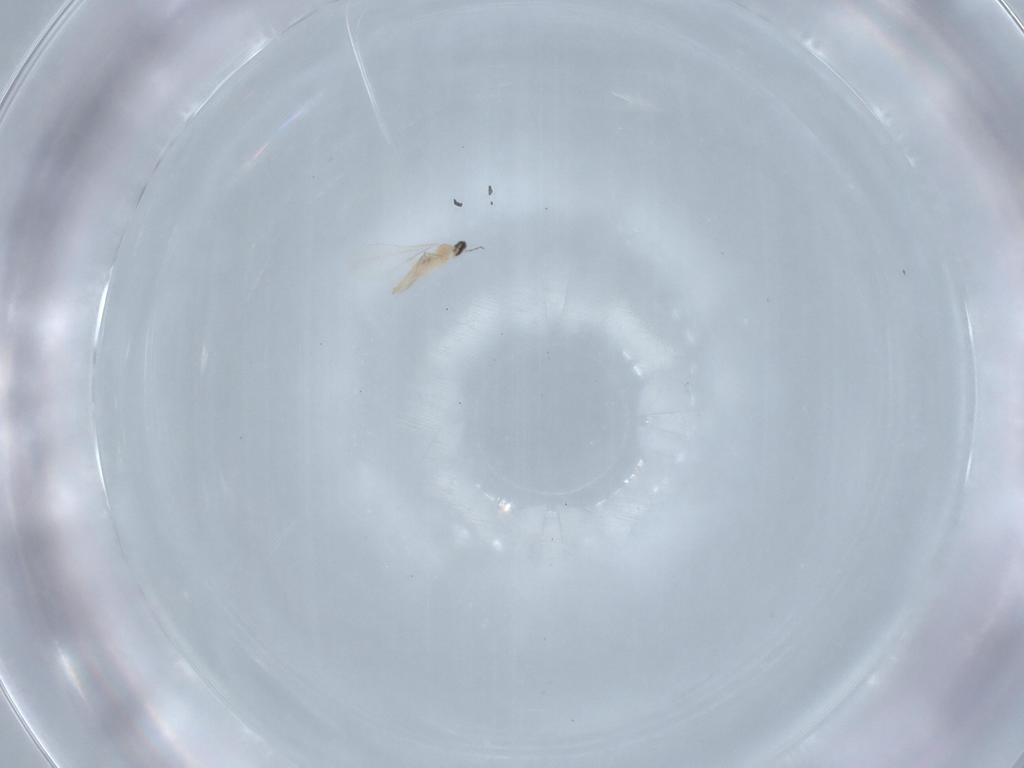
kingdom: Animalia
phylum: Arthropoda
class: Insecta
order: Diptera
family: Cecidomyiidae
